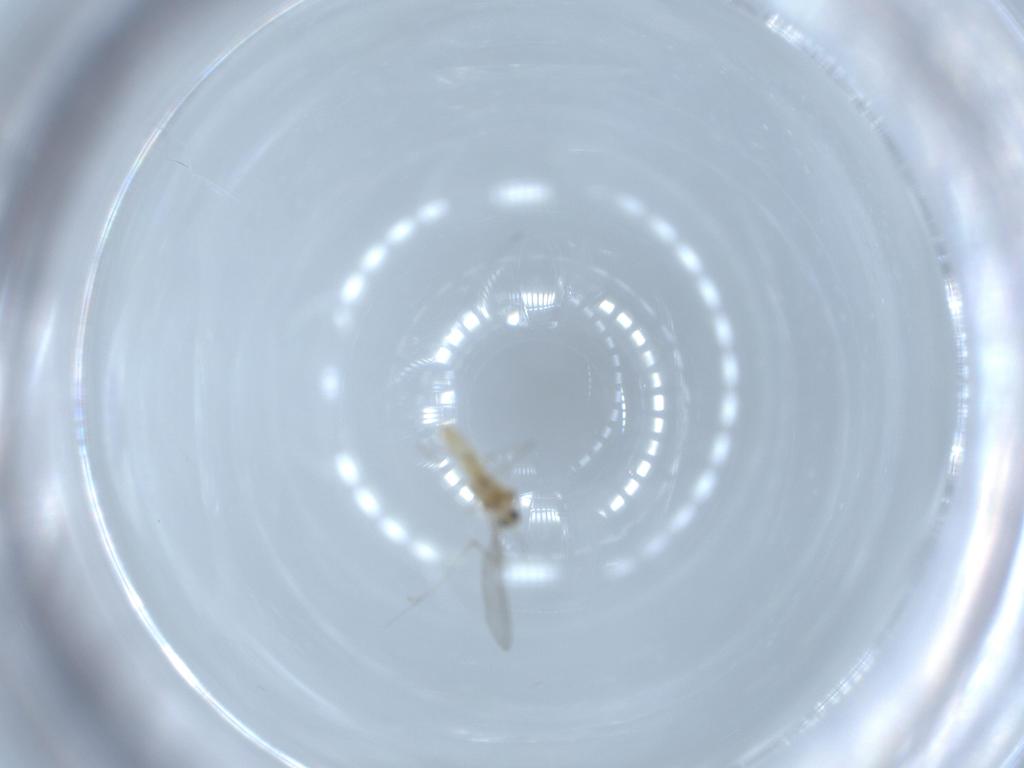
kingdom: Animalia
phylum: Arthropoda
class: Insecta
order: Diptera
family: Cecidomyiidae
